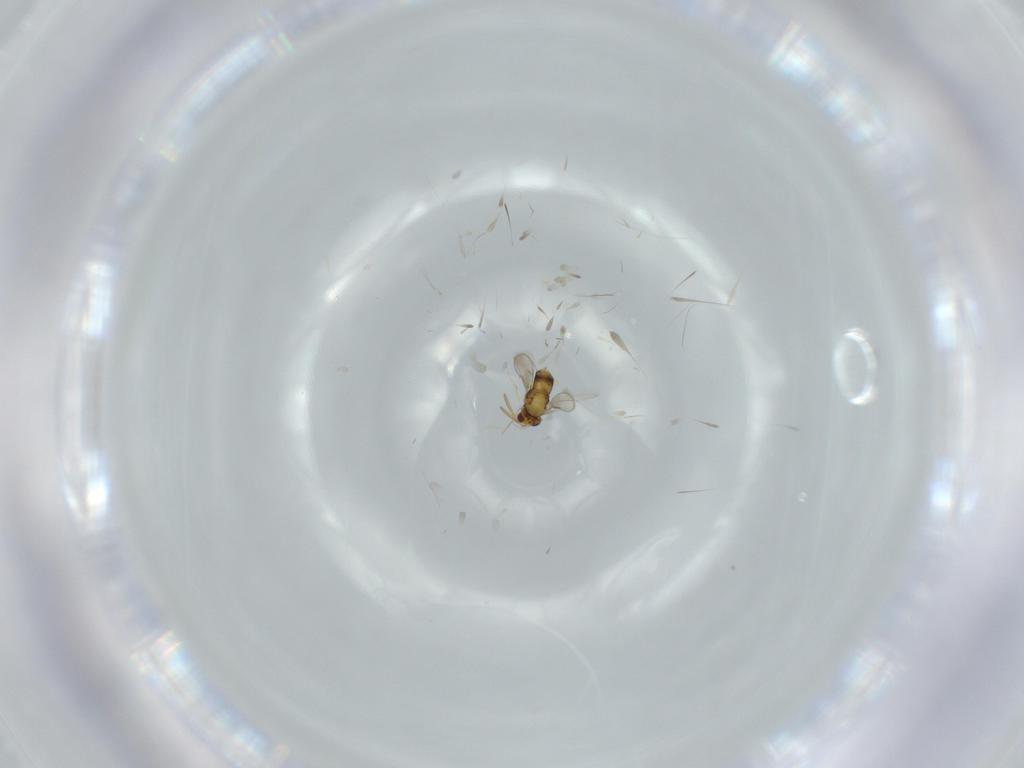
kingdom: Animalia
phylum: Arthropoda
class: Insecta
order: Hymenoptera
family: Aphelinidae
